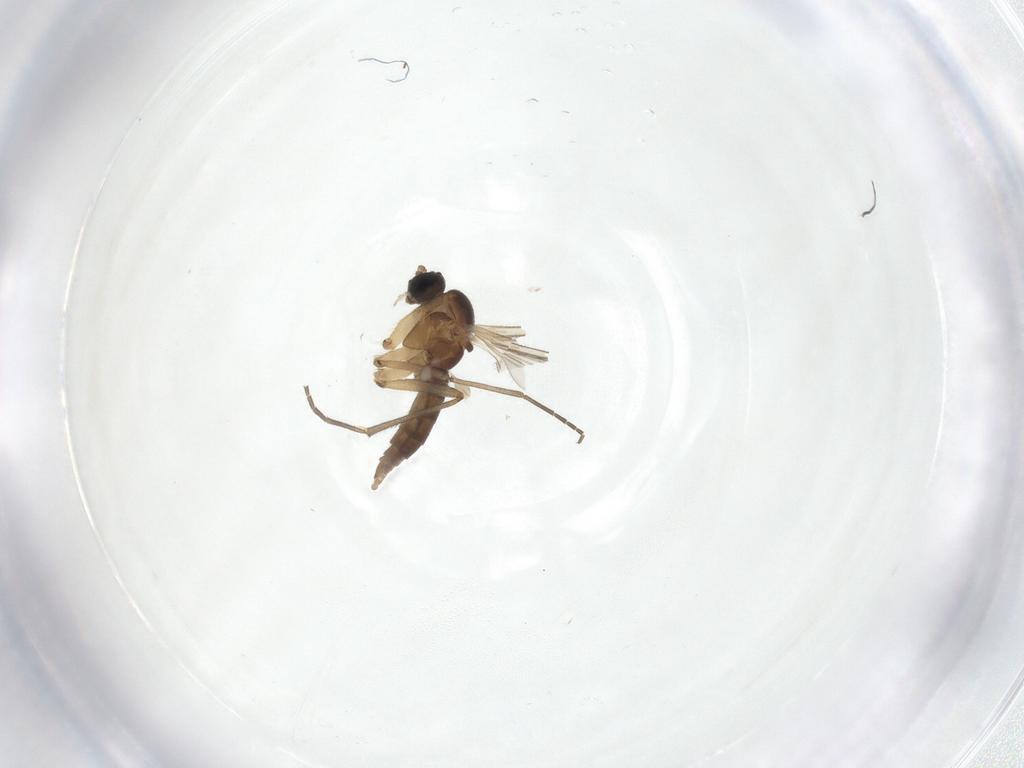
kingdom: Animalia
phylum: Arthropoda
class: Insecta
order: Diptera
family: Sciaridae
